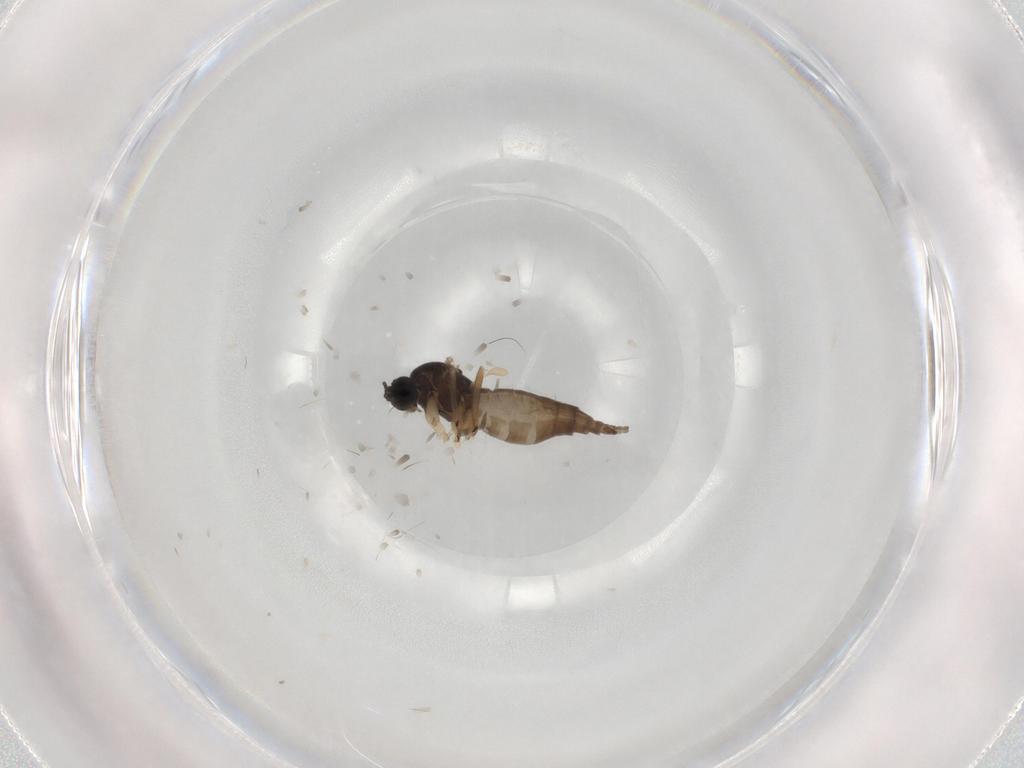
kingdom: Animalia
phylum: Arthropoda
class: Insecta
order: Diptera
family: Sciaridae
